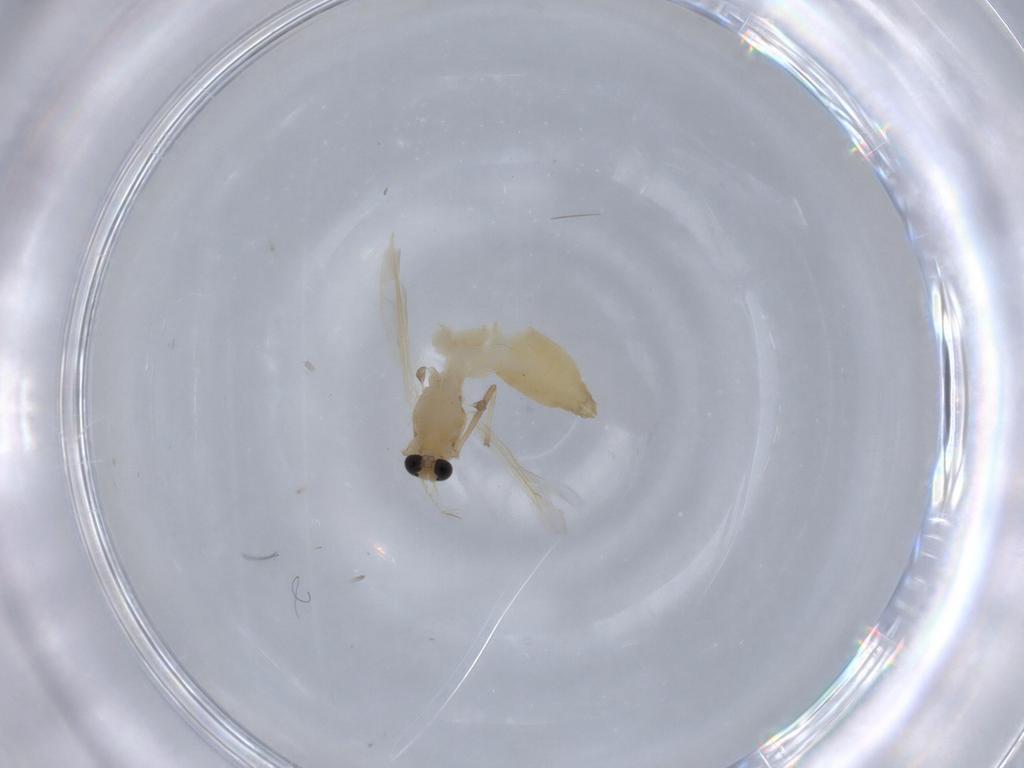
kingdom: Animalia
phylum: Arthropoda
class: Insecta
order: Diptera
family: Chironomidae
